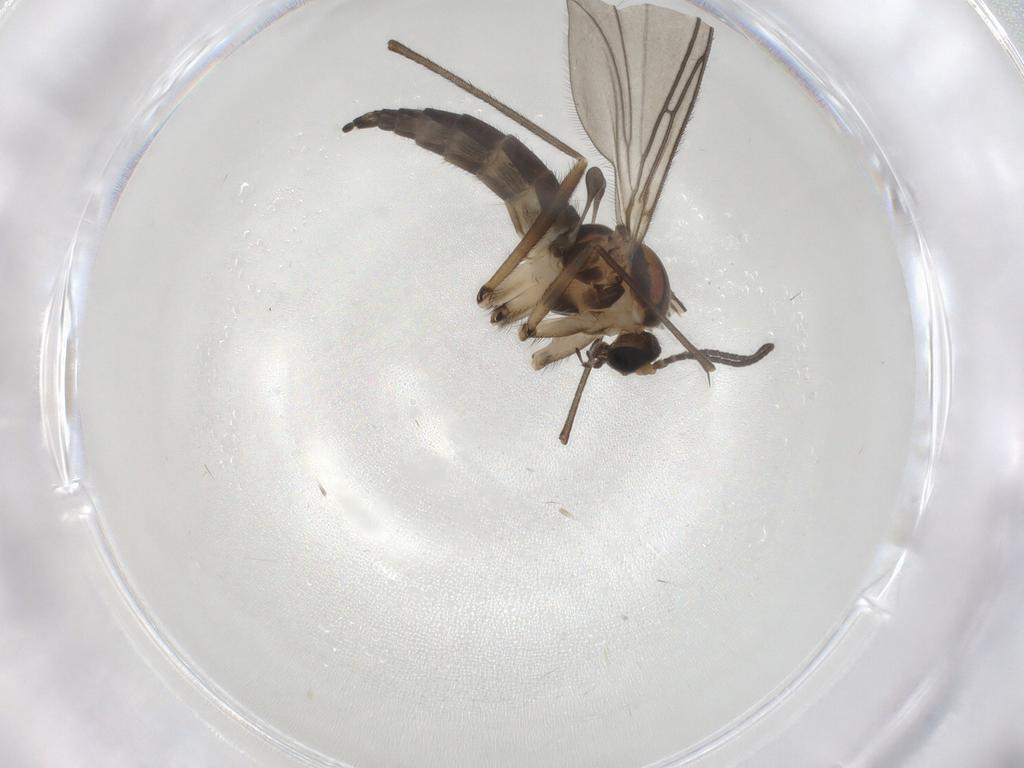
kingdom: Animalia
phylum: Arthropoda
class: Insecta
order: Diptera
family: Sciaridae
